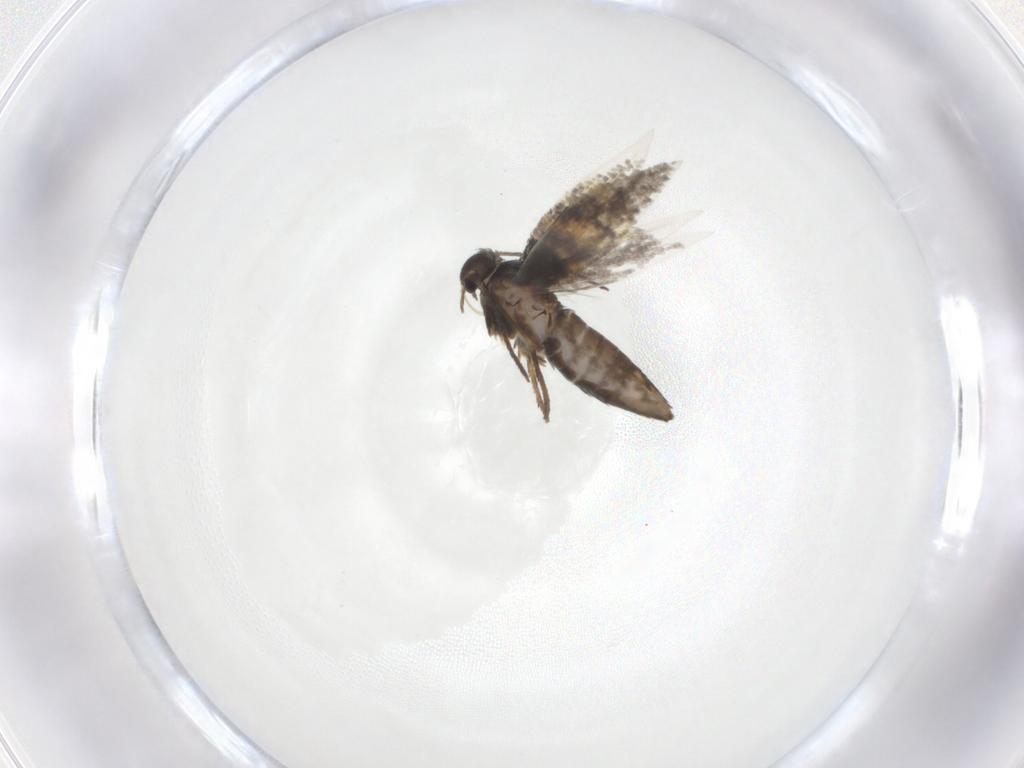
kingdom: Animalia
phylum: Arthropoda
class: Insecta
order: Lepidoptera
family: Heliozelidae
